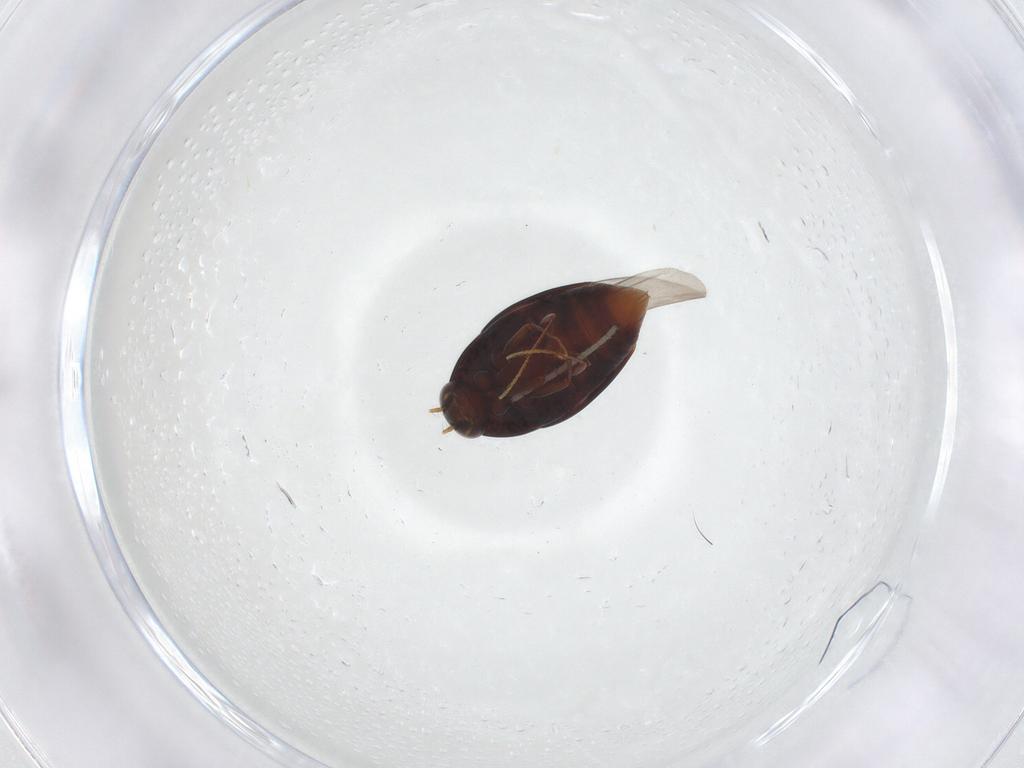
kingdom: Animalia
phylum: Arthropoda
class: Insecta
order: Coleoptera
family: Staphylinidae
